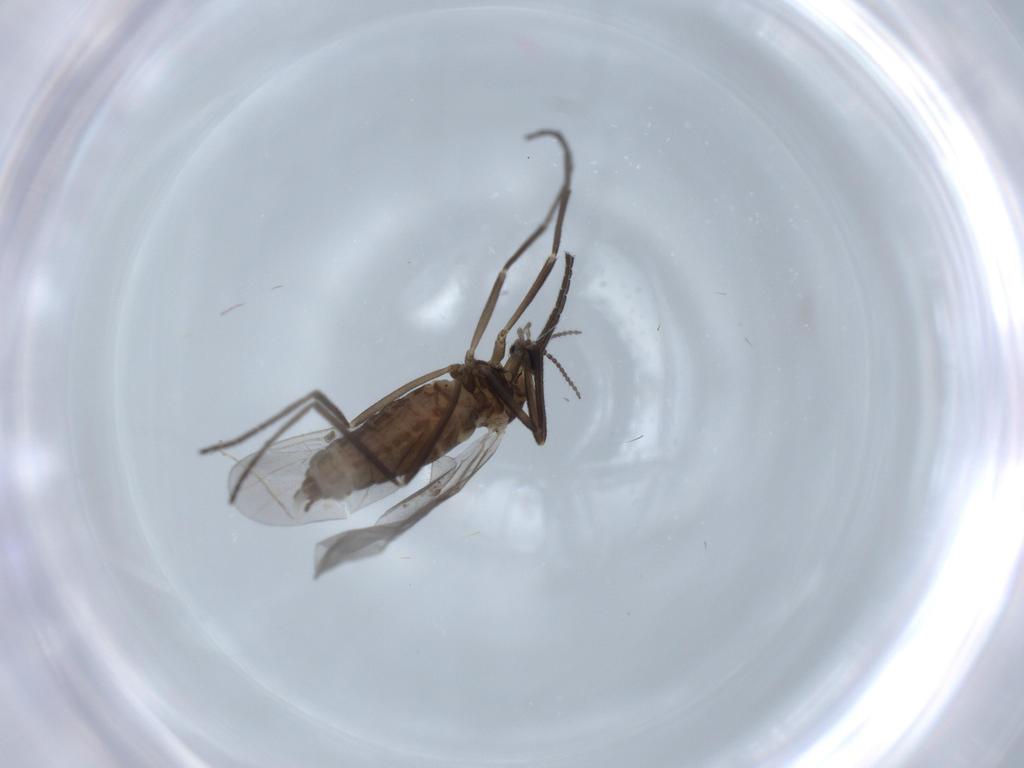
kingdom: Animalia
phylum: Arthropoda
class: Insecta
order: Diptera
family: Cecidomyiidae
